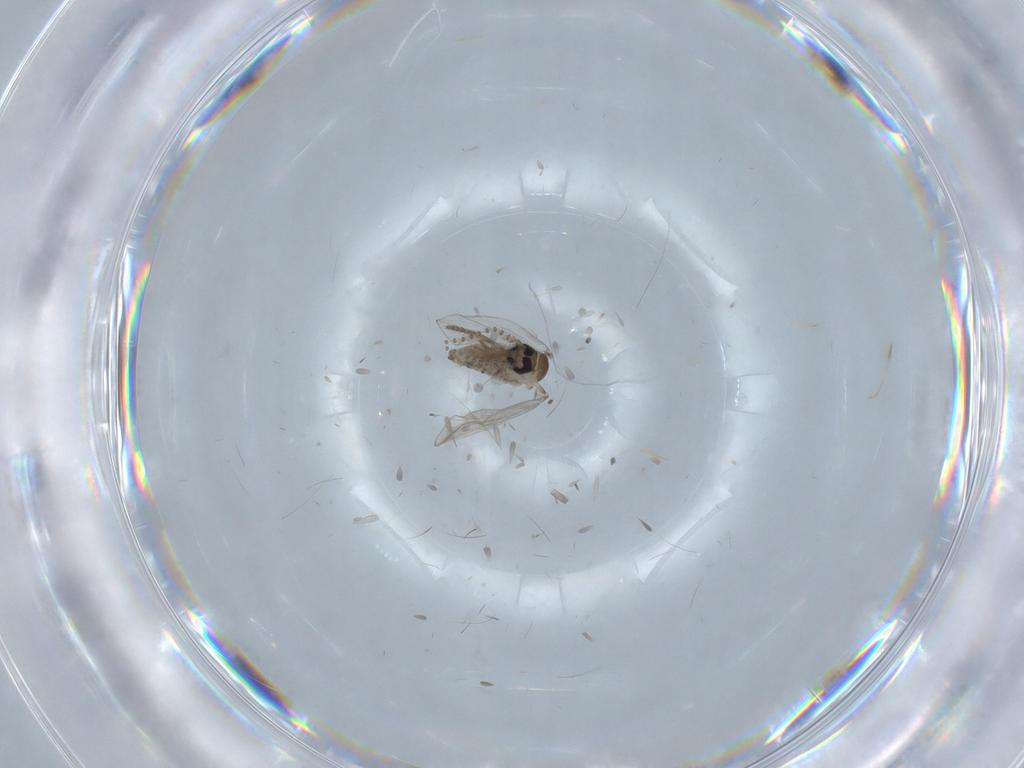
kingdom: Animalia
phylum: Arthropoda
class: Insecta
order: Diptera
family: Psychodidae
